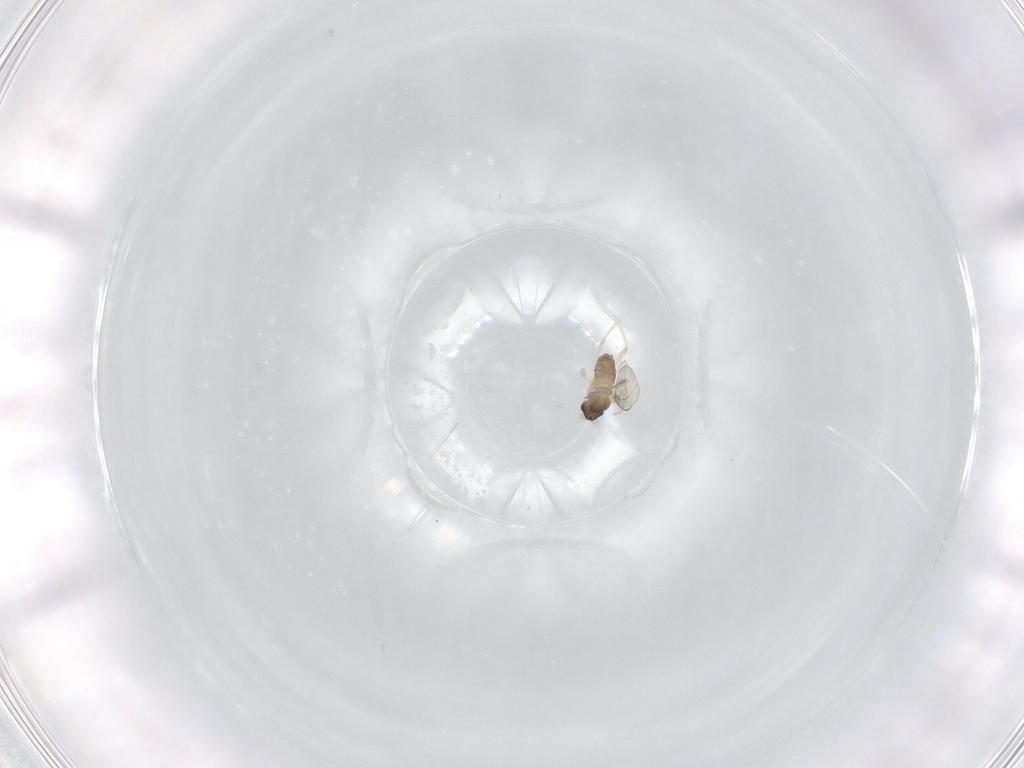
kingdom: Animalia
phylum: Arthropoda
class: Insecta
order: Diptera
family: Cecidomyiidae
